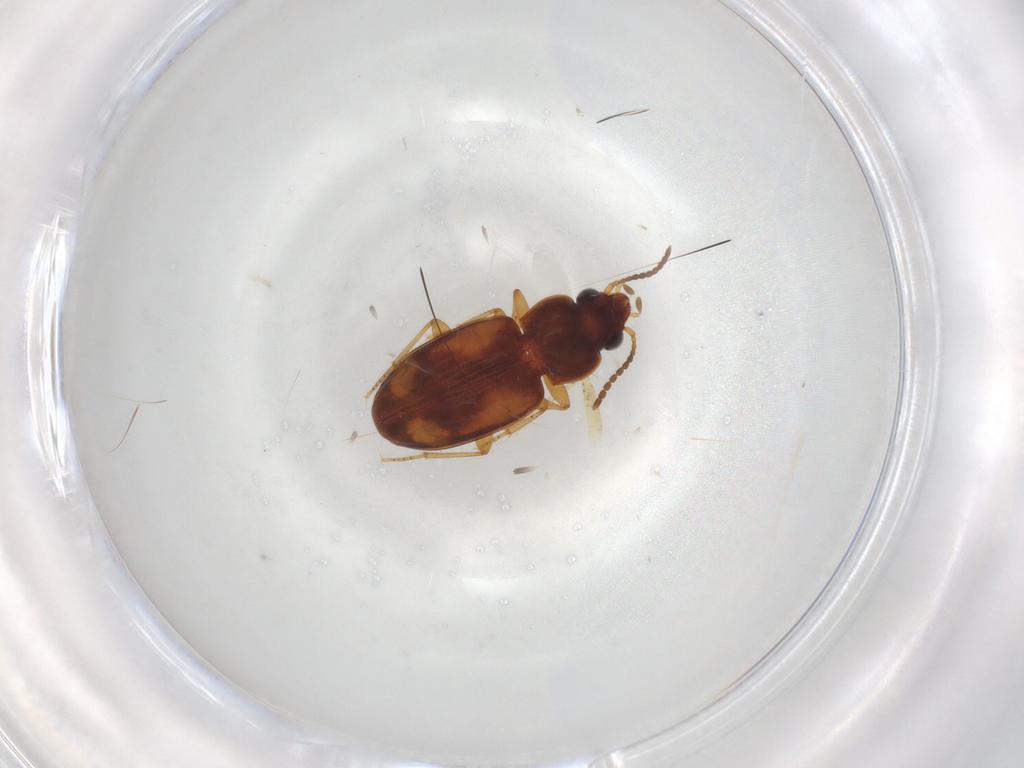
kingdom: Animalia
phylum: Arthropoda
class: Insecta
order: Coleoptera
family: Carabidae
